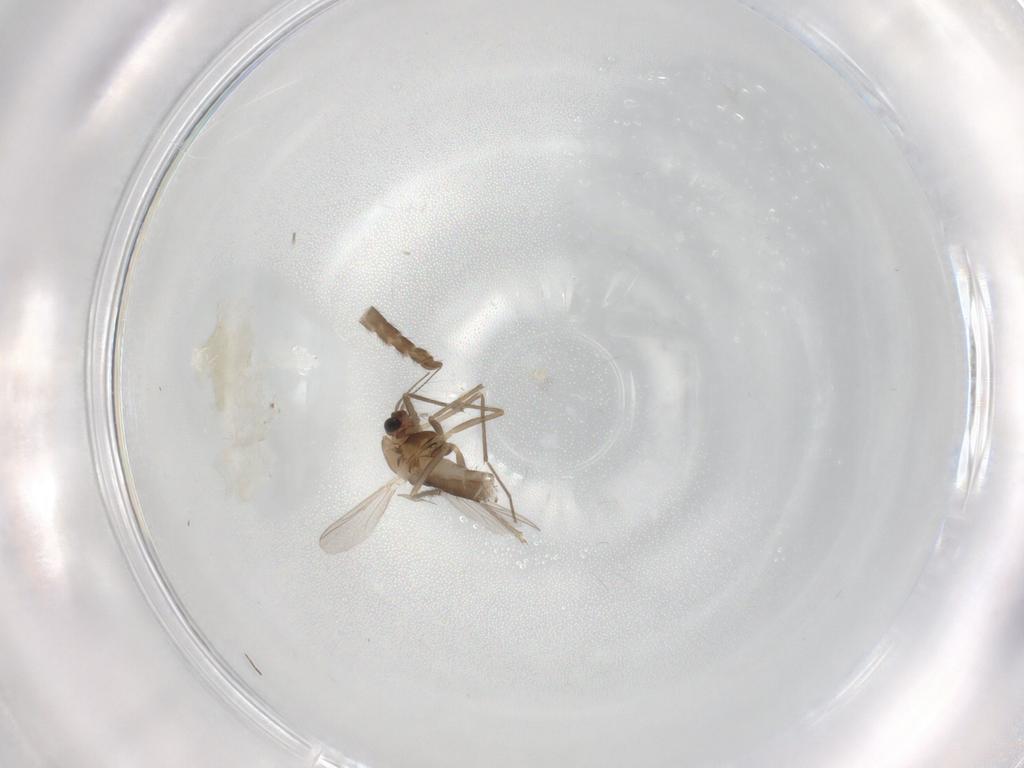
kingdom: Animalia
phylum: Arthropoda
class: Insecta
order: Diptera
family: Chironomidae
